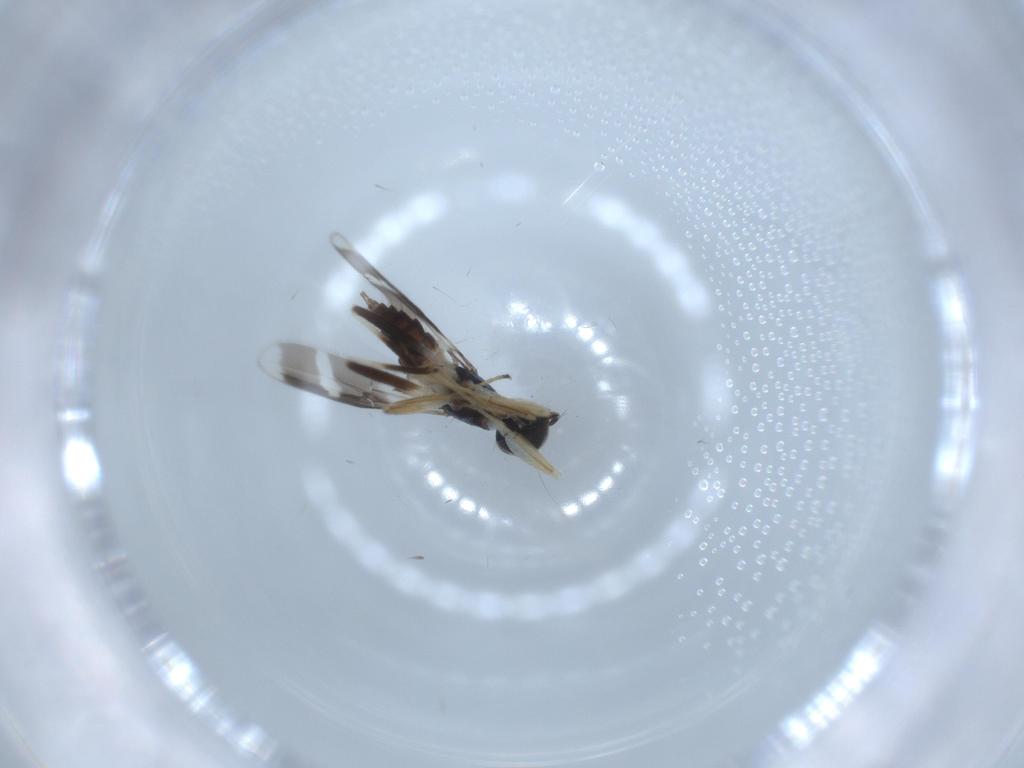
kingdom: Animalia
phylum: Arthropoda
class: Insecta
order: Diptera
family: Hybotidae
